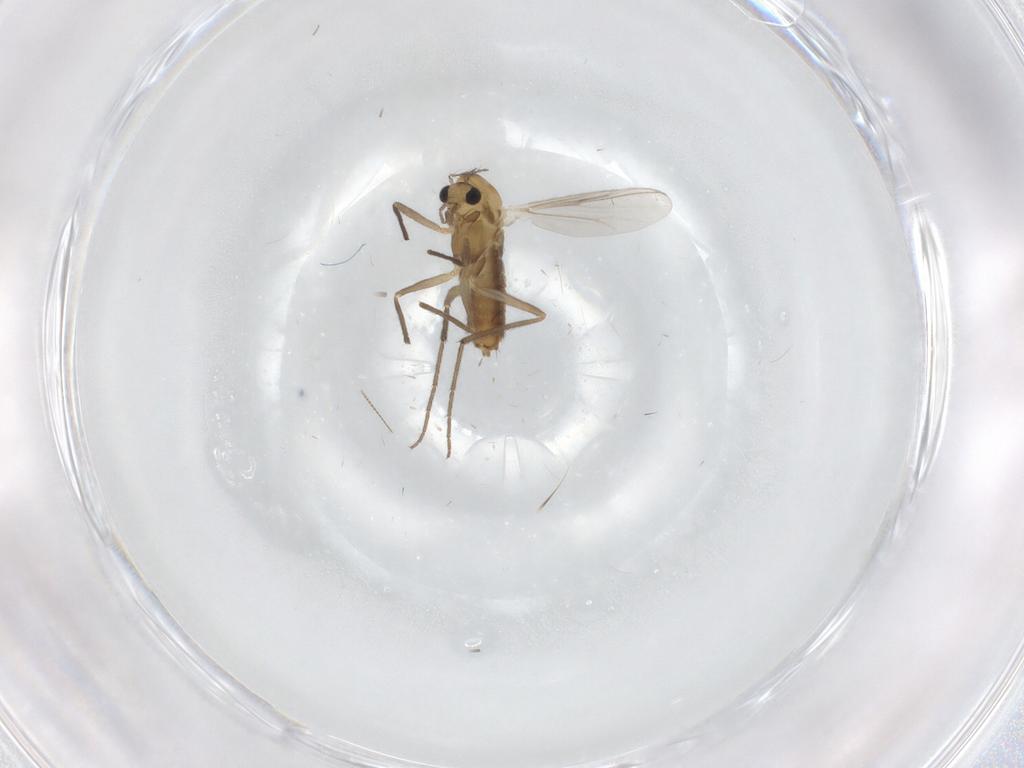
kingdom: Animalia
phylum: Arthropoda
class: Insecta
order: Diptera
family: Chironomidae
